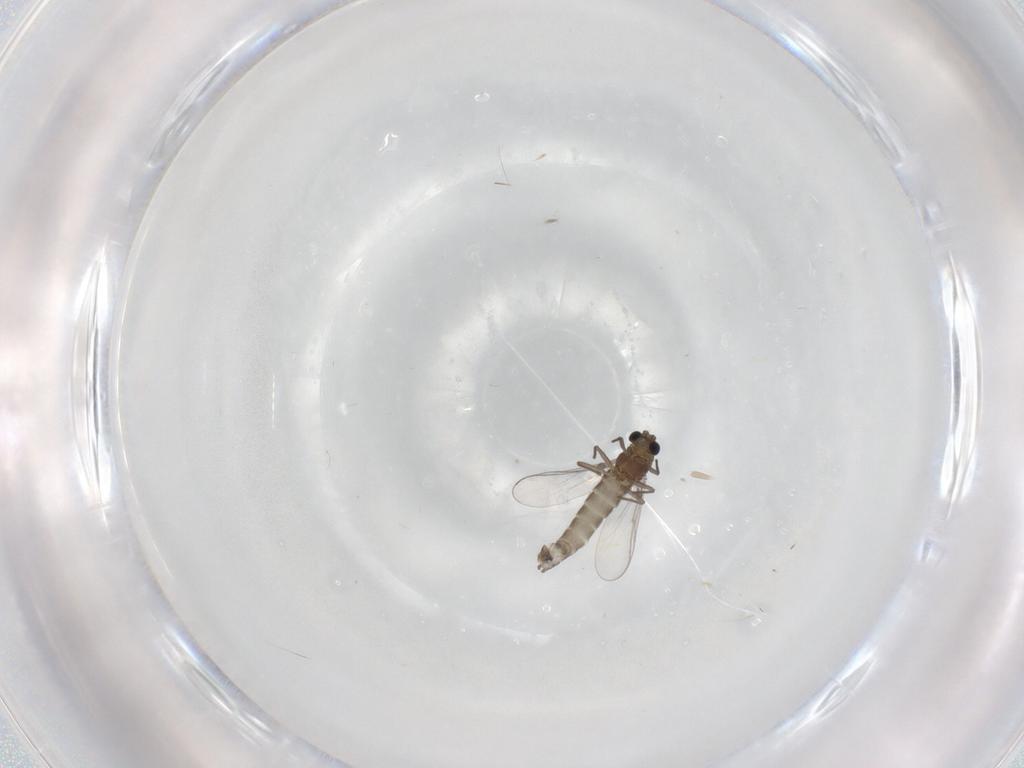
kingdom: Animalia
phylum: Arthropoda
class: Insecta
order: Diptera
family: Chironomidae
